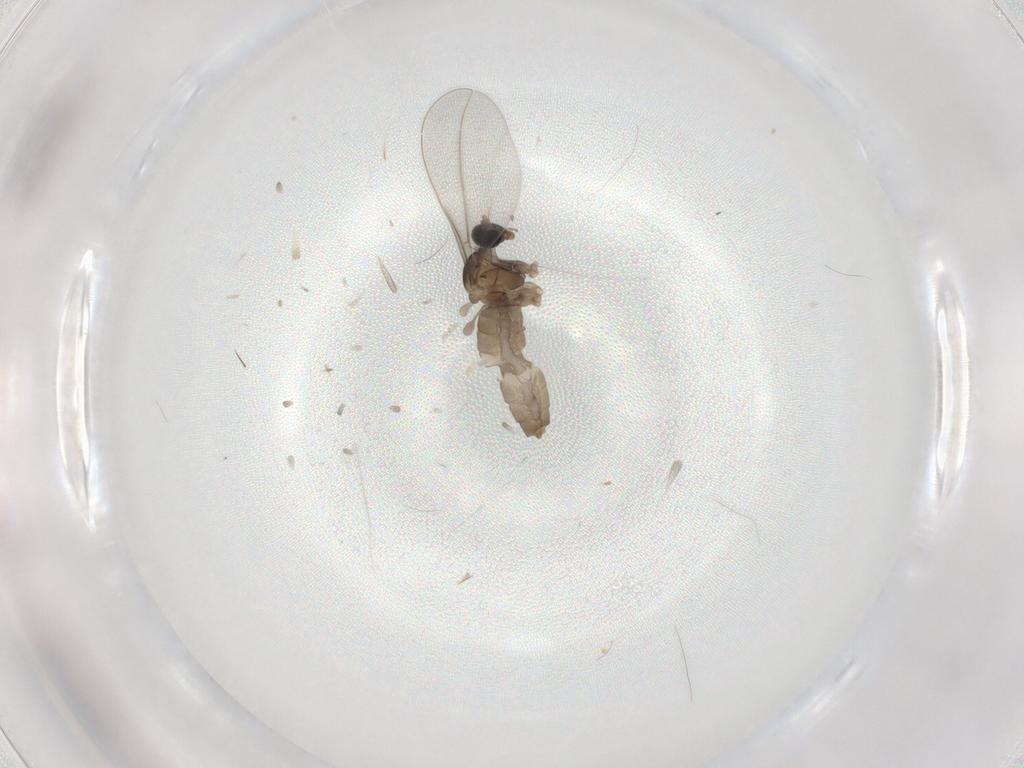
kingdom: Animalia
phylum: Arthropoda
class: Insecta
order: Diptera
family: Cecidomyiidae
